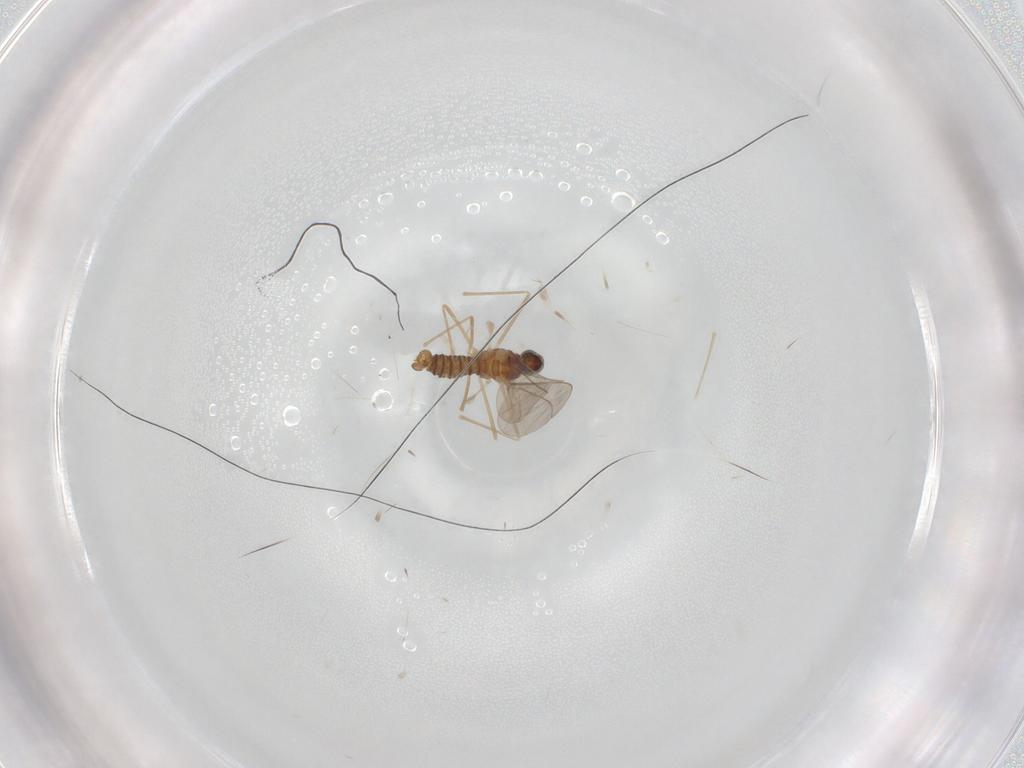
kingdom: Animalia
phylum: Arthropoda
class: Insecta
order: Diptera
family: Cecidomyiidae
